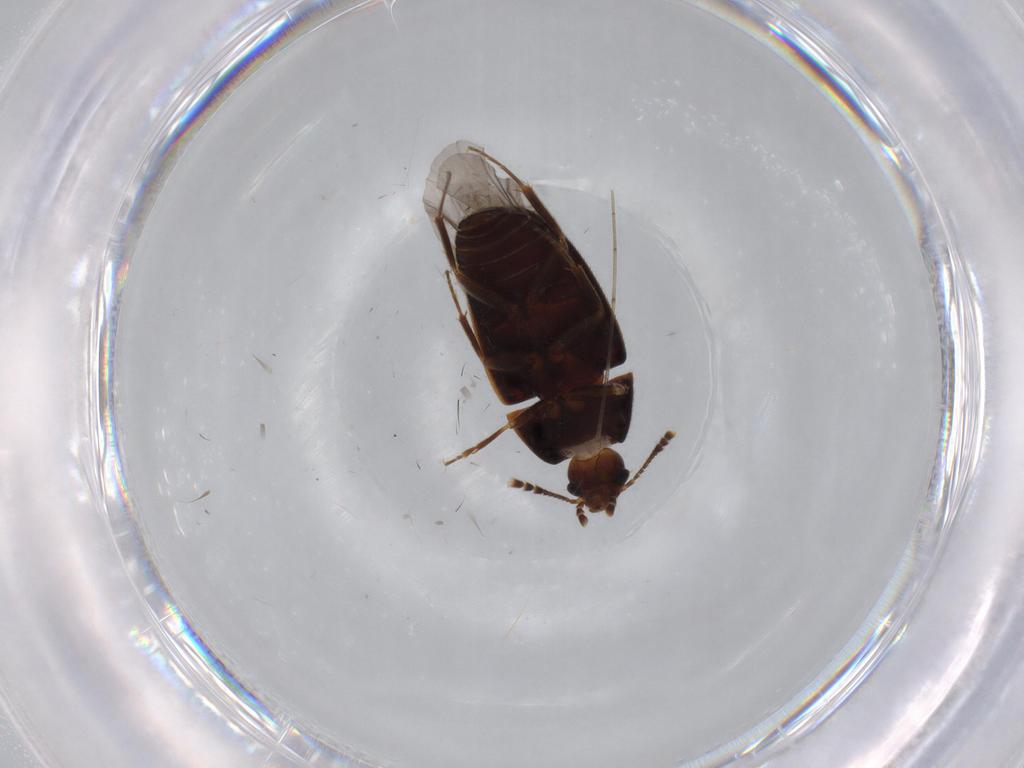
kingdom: Animalia
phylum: Arthropoda
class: Insecta
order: Coleoptera
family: Mycetophagidae
